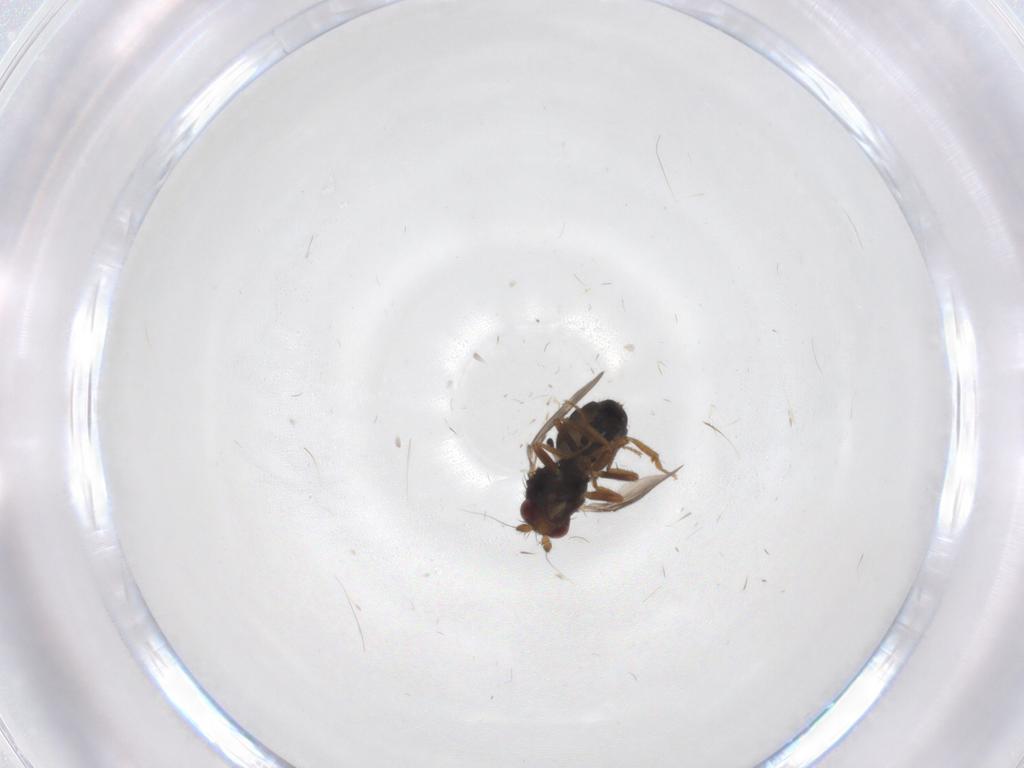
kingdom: Animalia
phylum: Arthropoda
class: Insecta
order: Diptera
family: Sphaeroceridae
